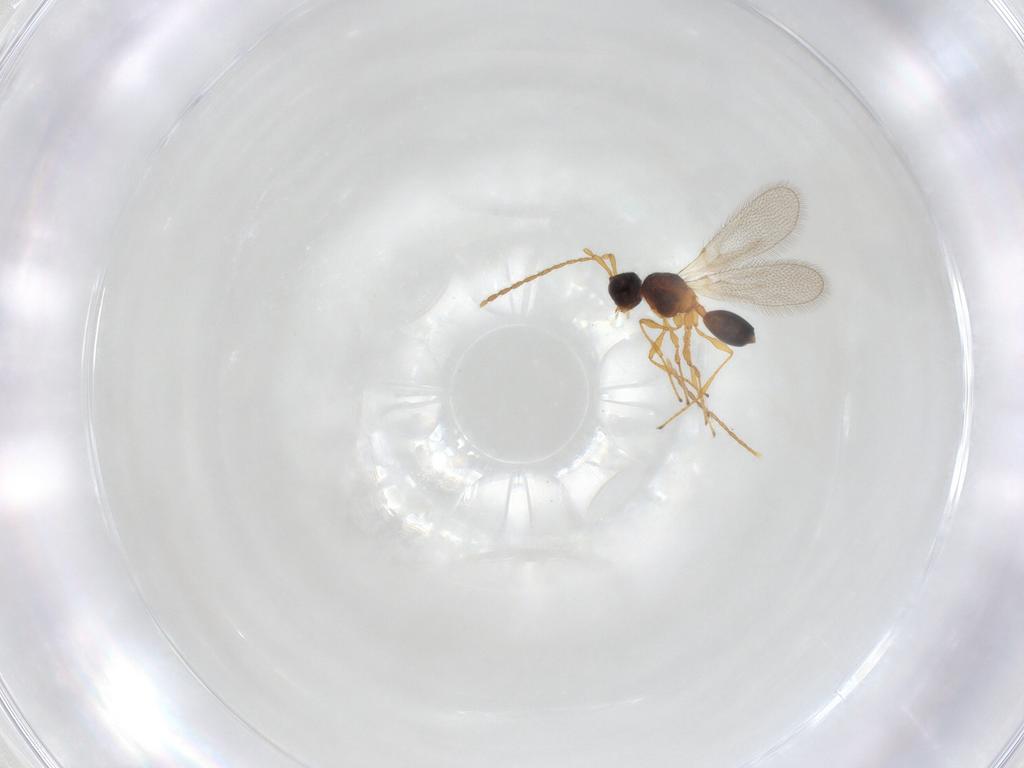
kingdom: Animalia
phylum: Arthropoda
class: Insecta
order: Hymenoptera
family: Diapriidae
